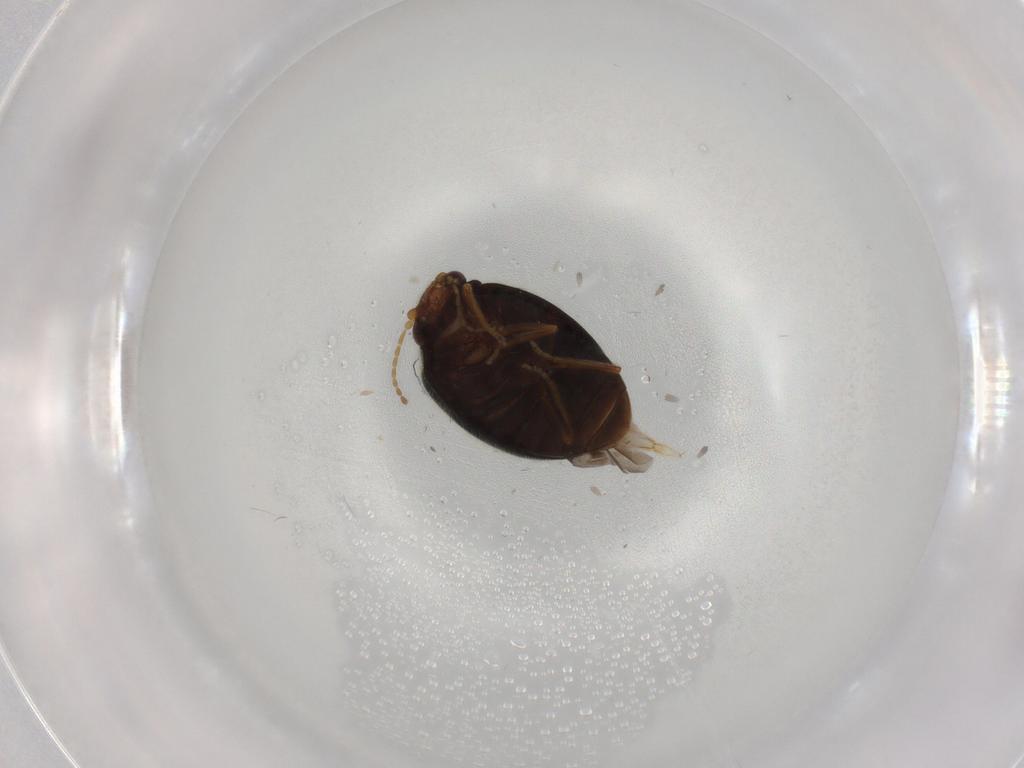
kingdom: Animalia
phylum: Arthropoda
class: Insecta
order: Coleoptera
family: Scirtidae
